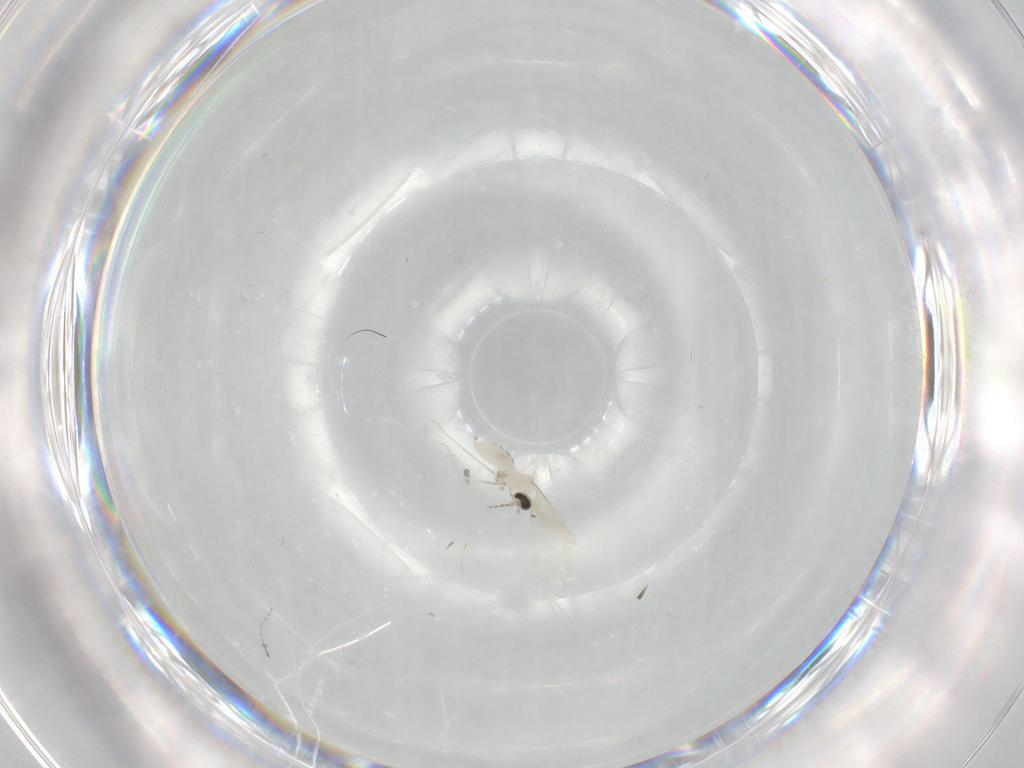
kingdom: Animalia
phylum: Arthropoda
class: Insecta
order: Diptera
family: Cecidomyiidae
